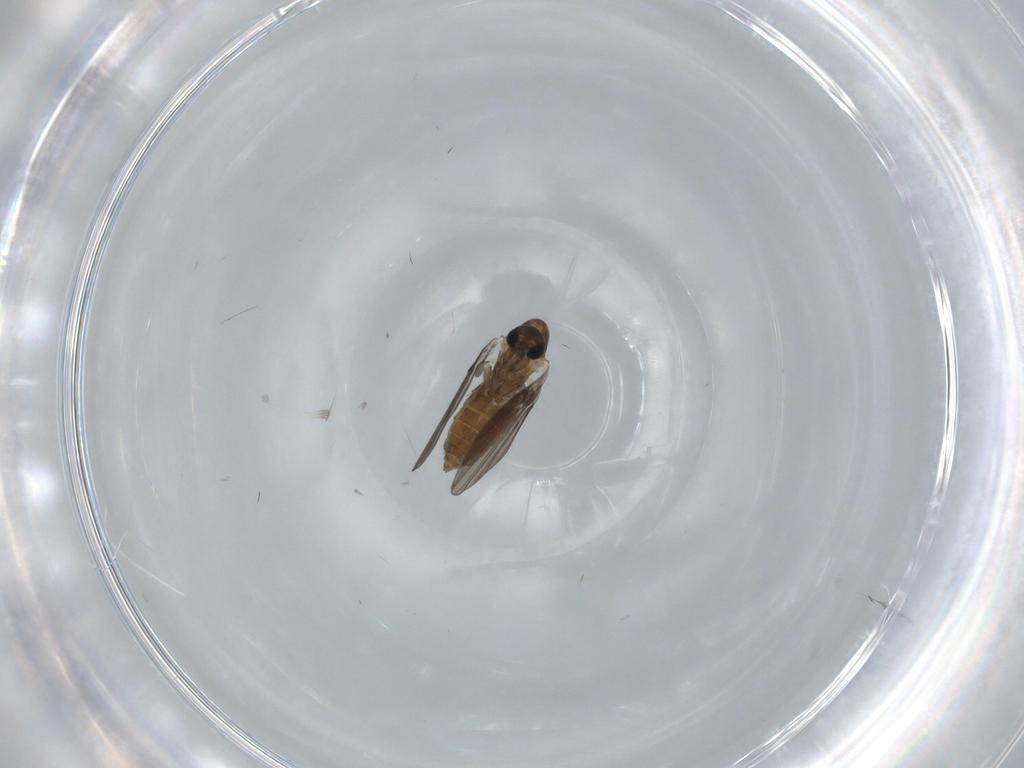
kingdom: Animalia
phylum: Arthropoda
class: Insecta
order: Diptera
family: Psychodidae
